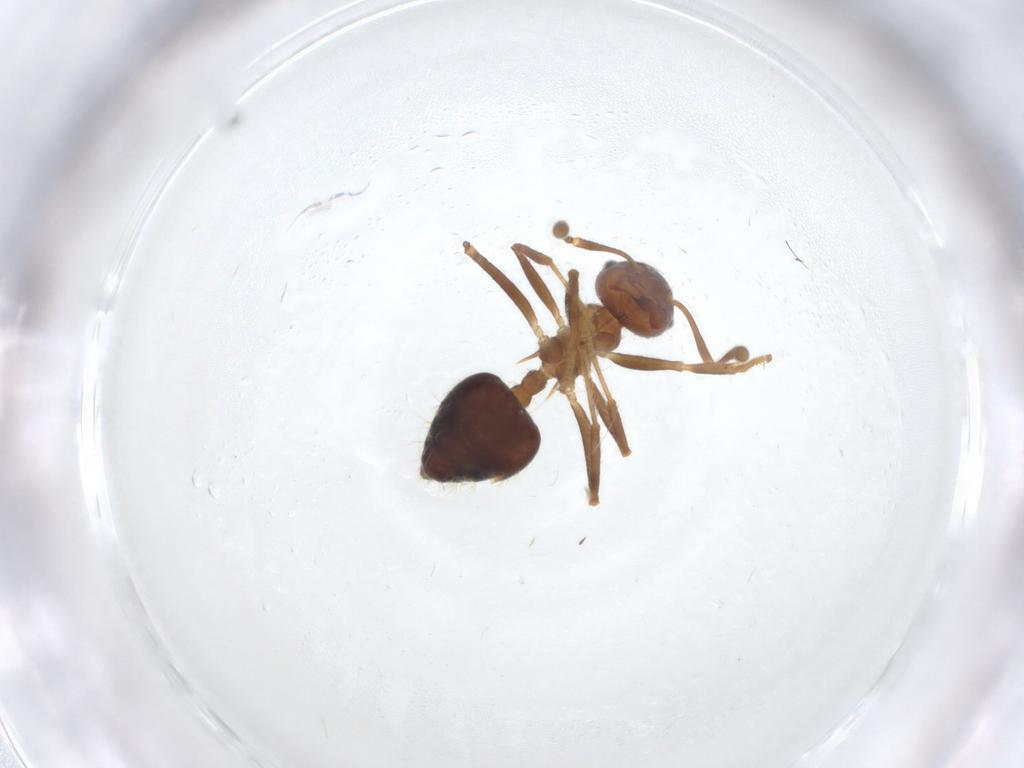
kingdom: Animalia
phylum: Arthropoda
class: Insecta
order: Hymenoptera
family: Formicidae
